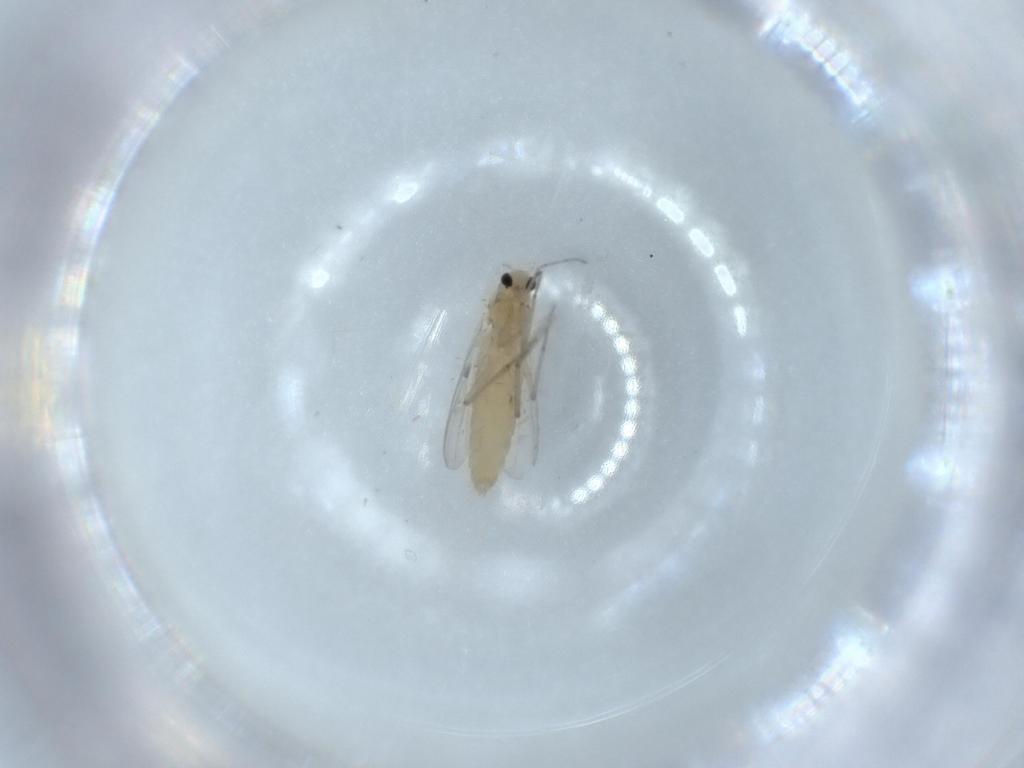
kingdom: Animalia
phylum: Arthropoda
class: Insecta
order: Diptera
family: Chironomidae
